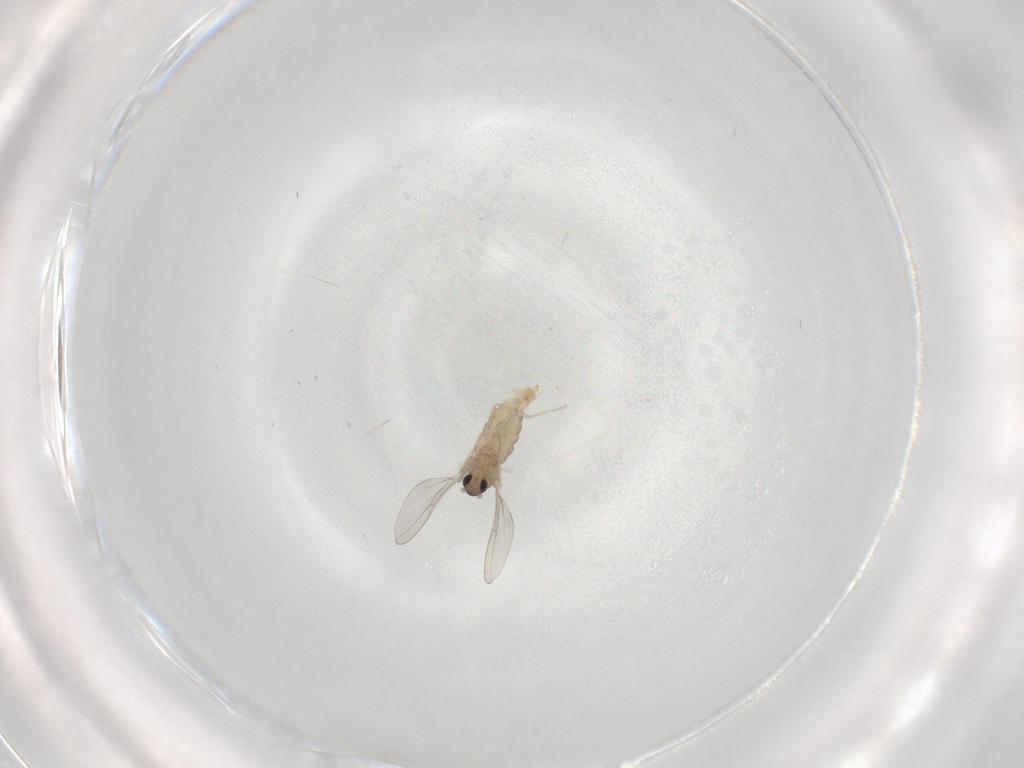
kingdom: Animalia
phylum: Arthropoda
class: Insecta
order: Diptera
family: Cecidomyiidae
